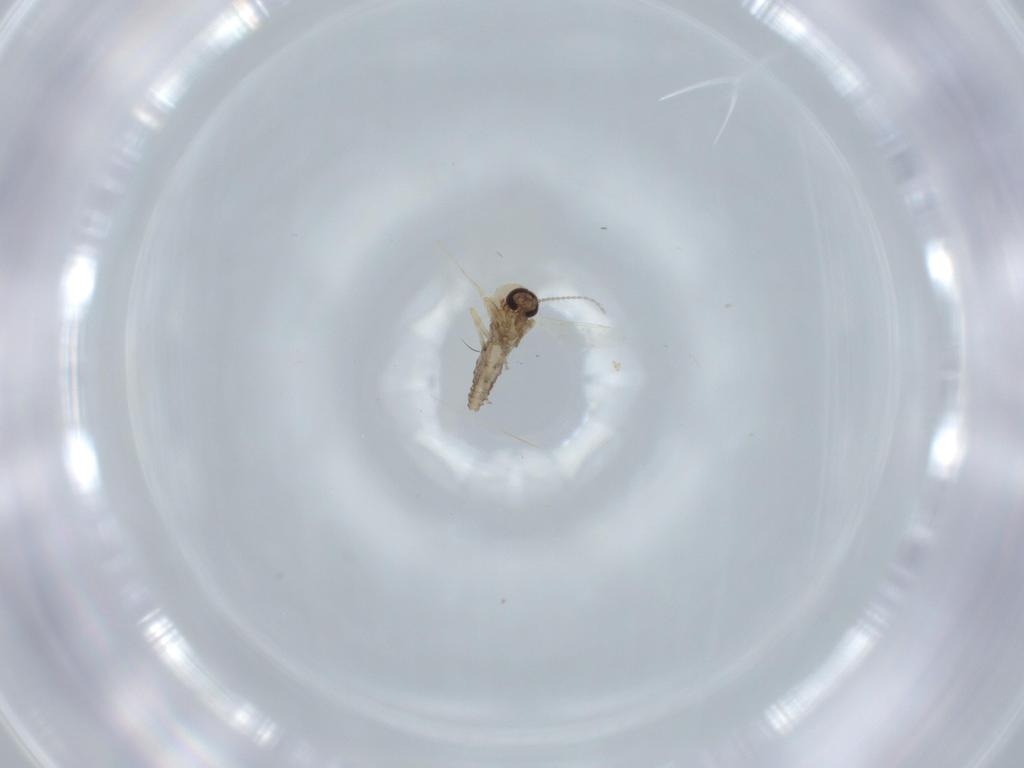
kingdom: Animalia
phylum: Arthropoda
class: Insecta
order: Diptera
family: Ceratopogonidae
